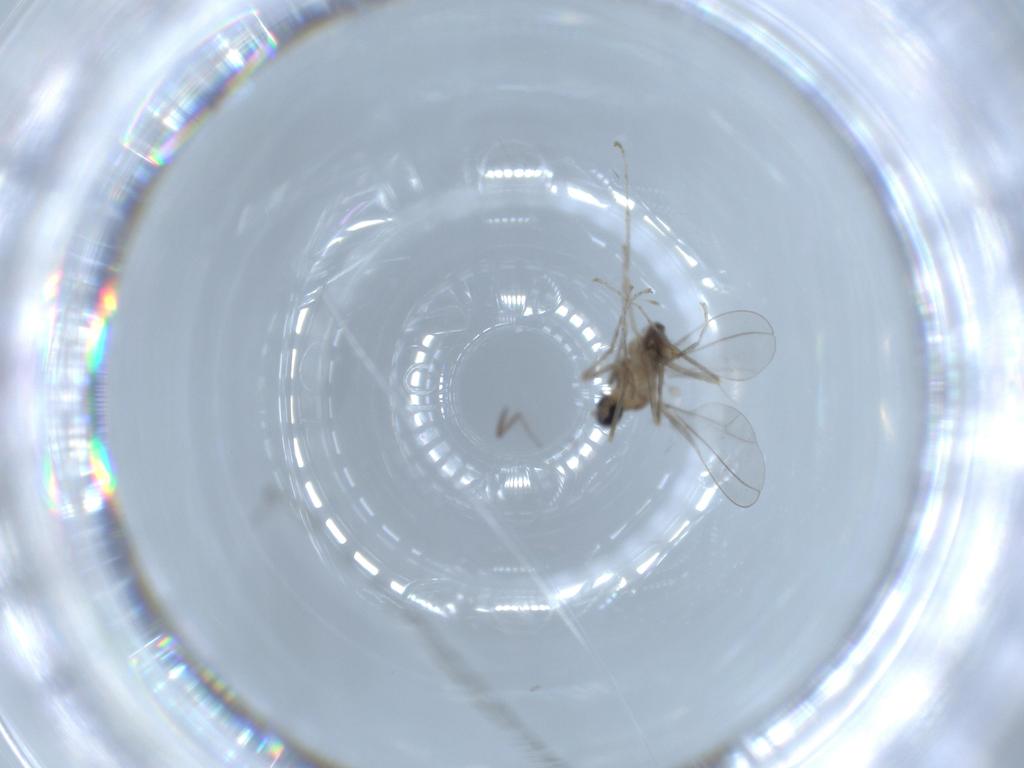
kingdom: Animalia
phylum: Arthropoda
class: Insecta
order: Diptera
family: Cecidomyiidae
